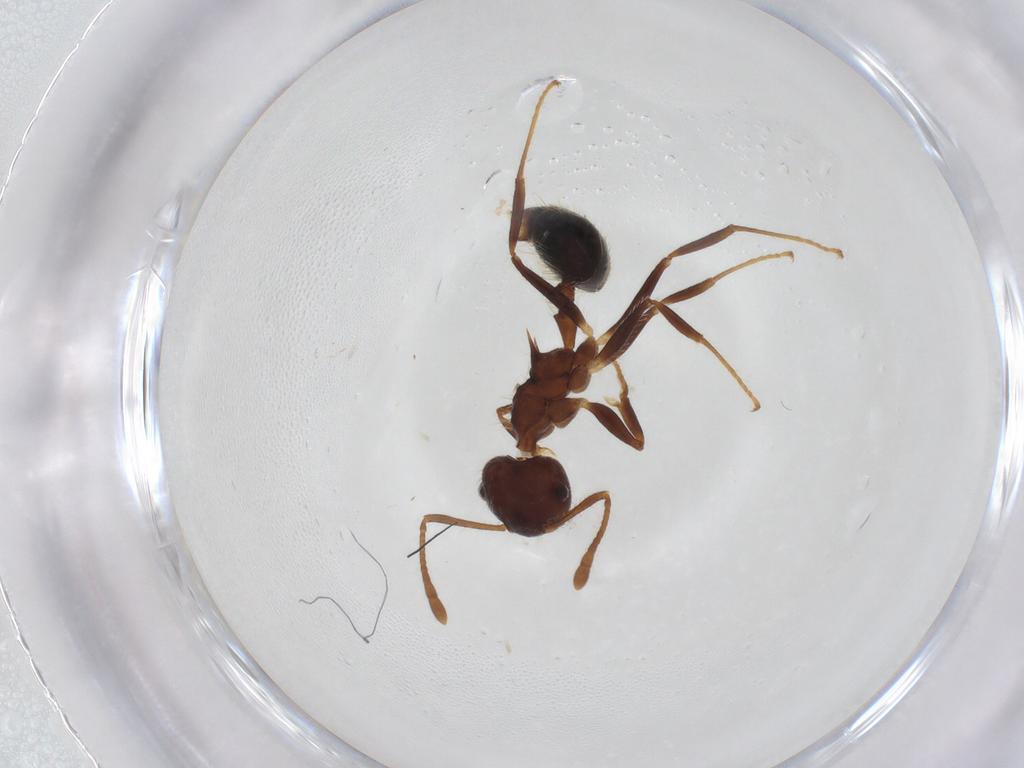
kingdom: Animalia
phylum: Arthropoda
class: Insecta
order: Hymenoptera
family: Formicidae
